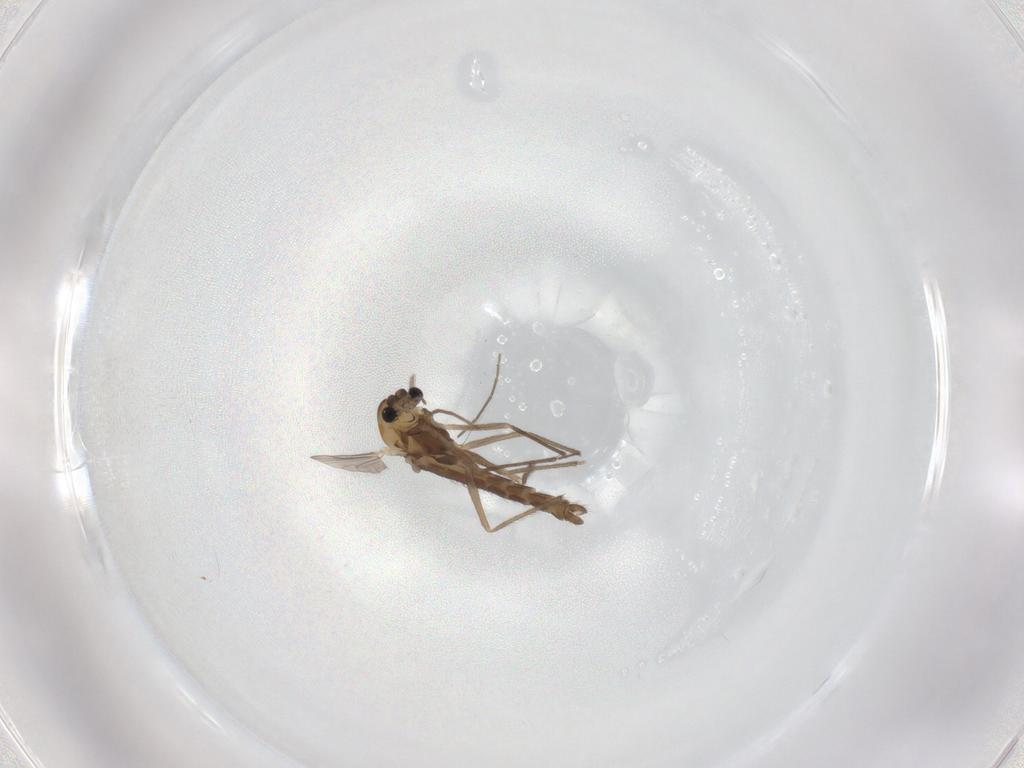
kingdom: Animalia
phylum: Arthropoda
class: Insecta
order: Diptera
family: Chironomidae
